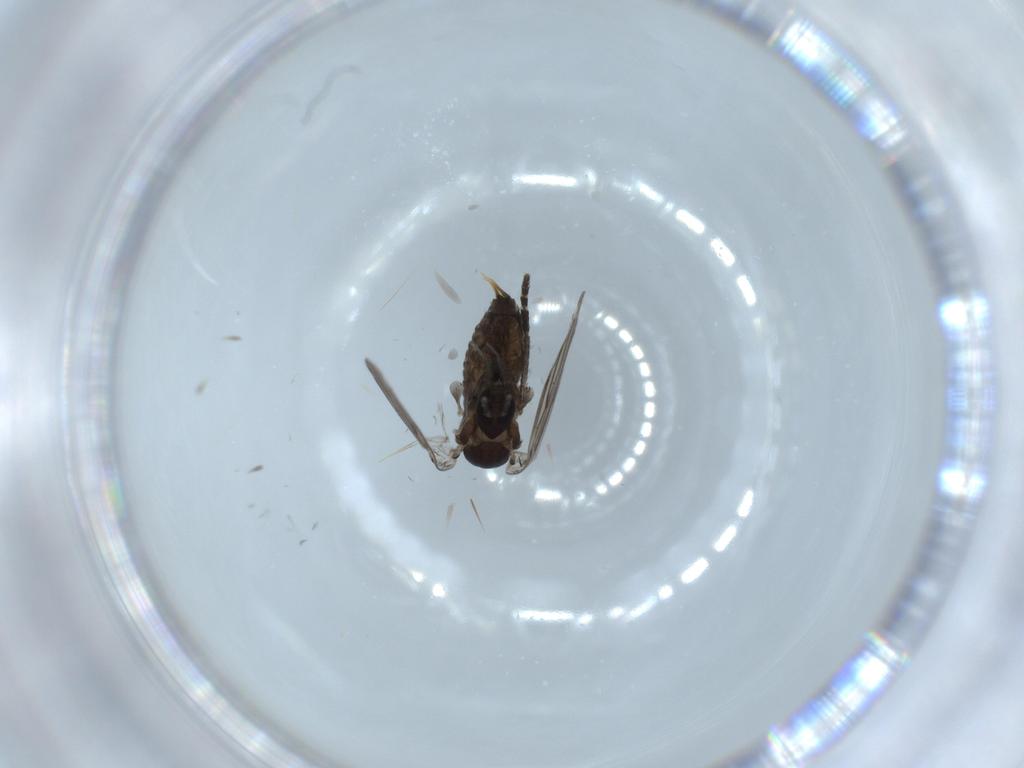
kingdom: Animalia
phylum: Arthropoda
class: Insecta
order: Diptera
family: Psychodidae
